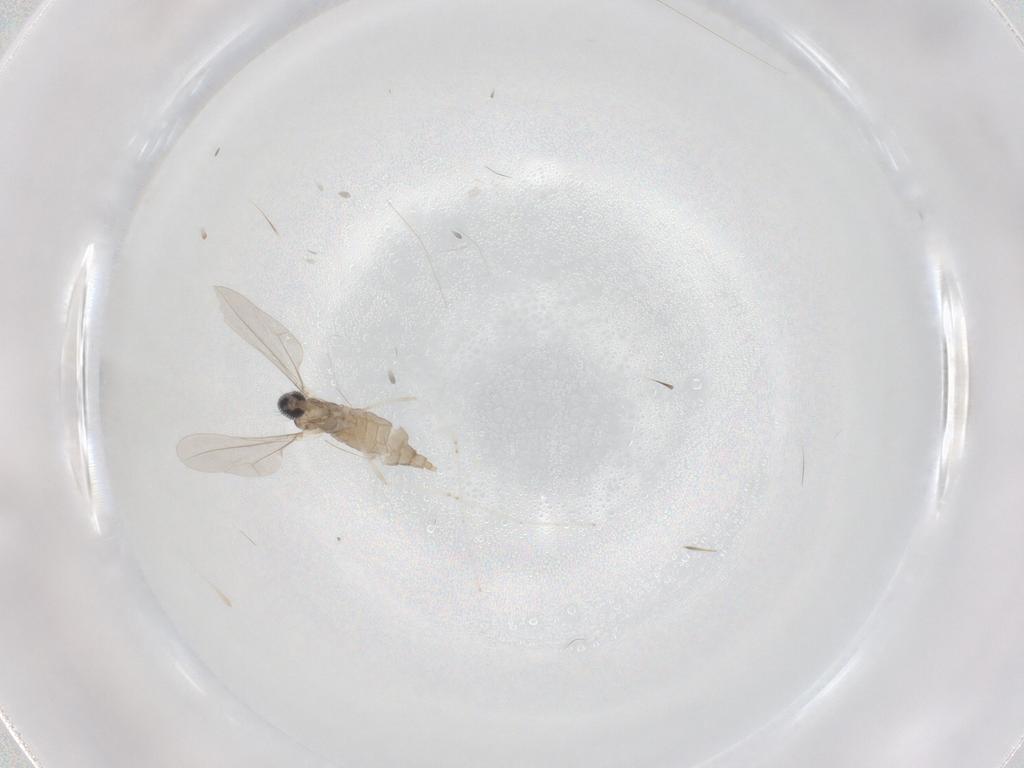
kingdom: Animalia
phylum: Arthropoda
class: Insecta
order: Diptera
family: Cecidomyiidae
